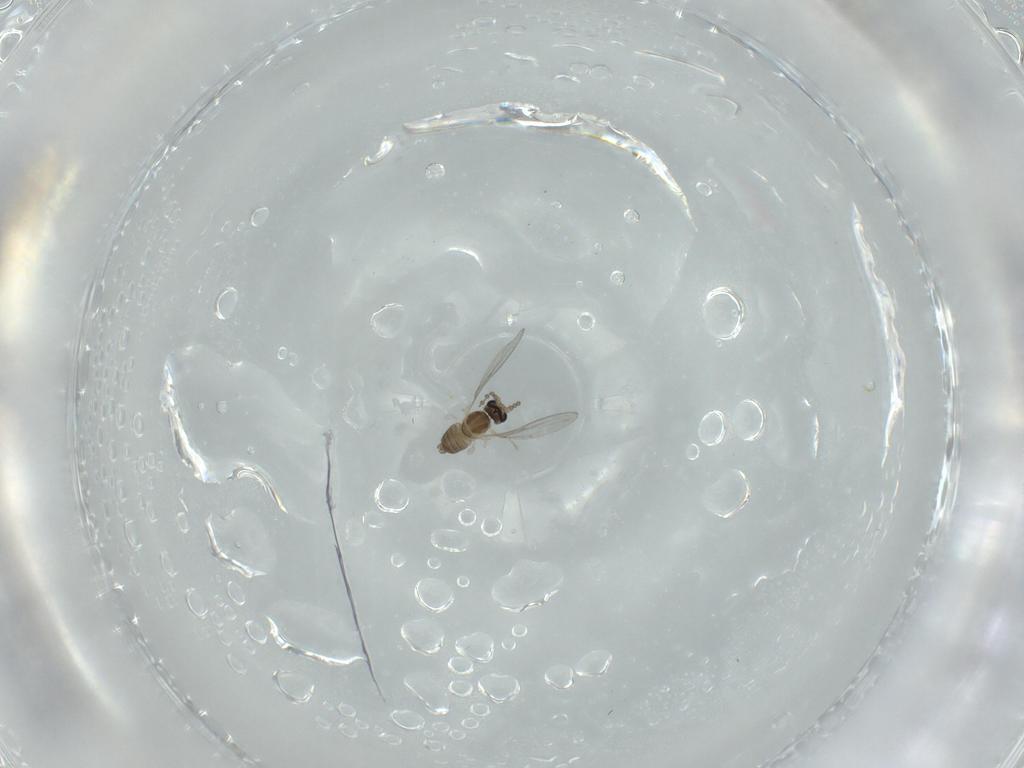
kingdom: Animalia
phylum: Arthropoda
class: Insecta
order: Diptera
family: Cecidomyiidae
